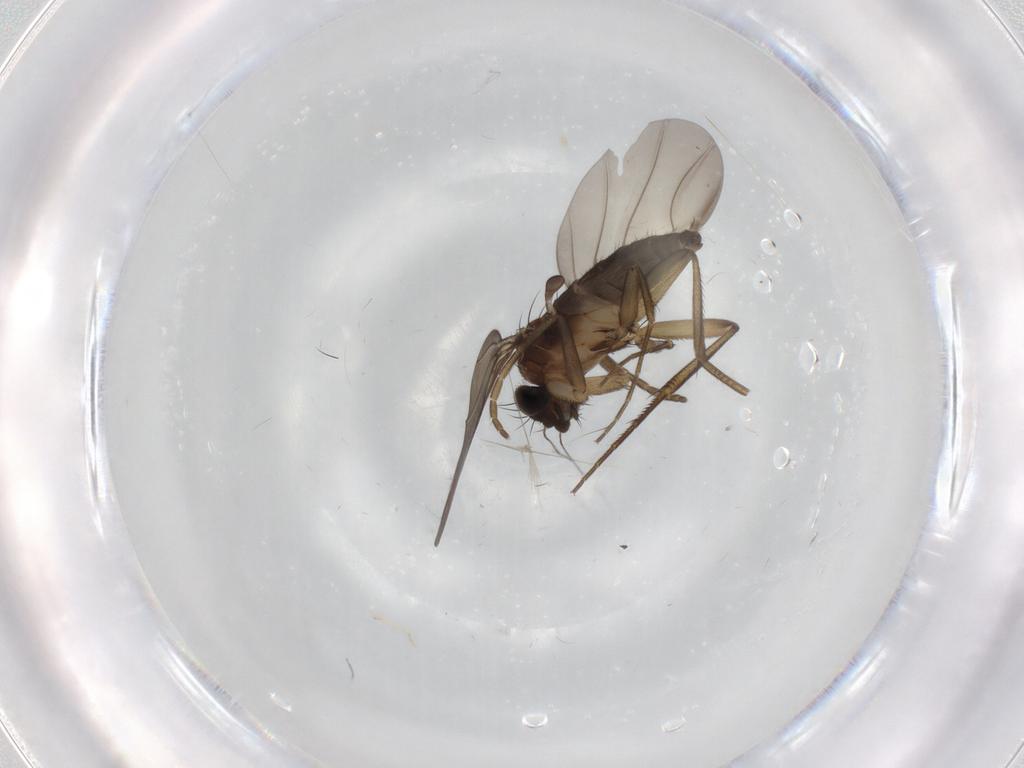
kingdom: Animalia
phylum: Arthropoda
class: Insecta
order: Diptera
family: Phoridae
